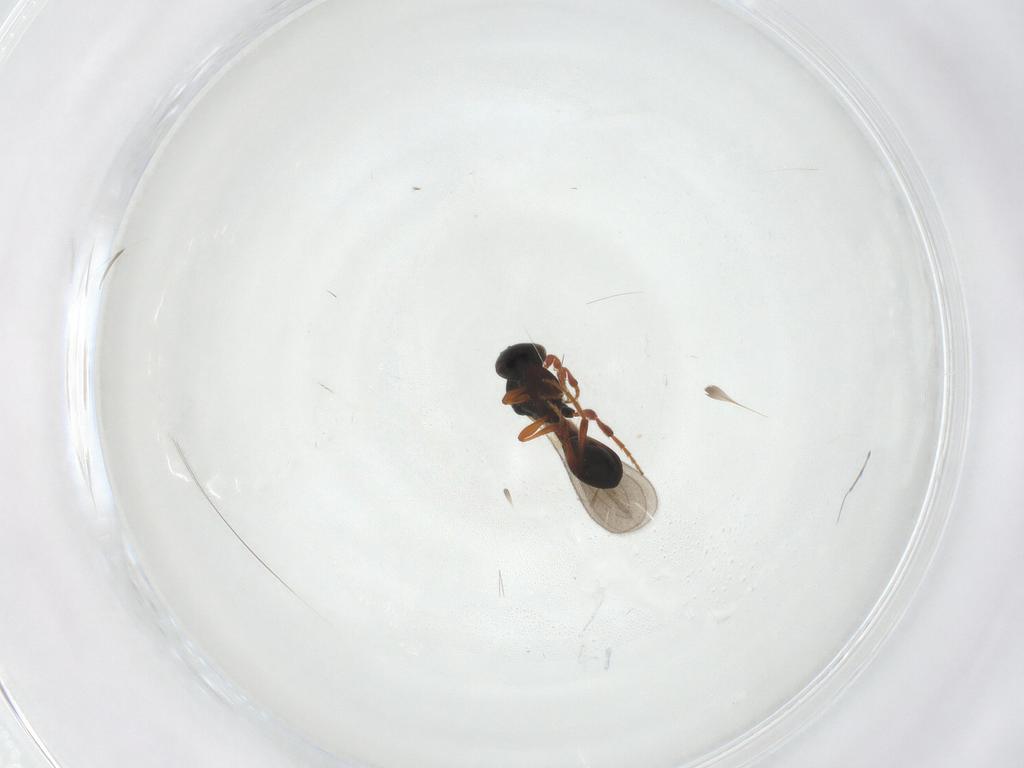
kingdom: Animalia
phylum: Arthropoda
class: Insecta
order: Hymenoptera
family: Platygastridae
